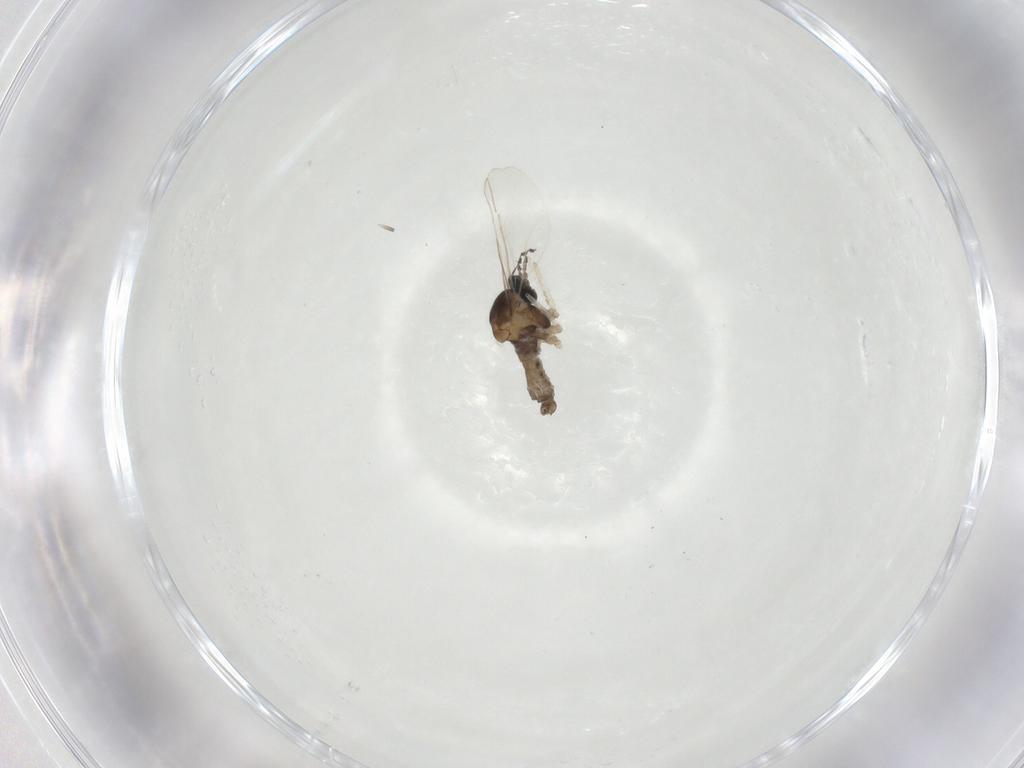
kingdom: Animalia
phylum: Arthropoda
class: Insecta
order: Diptera
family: Cecidomyiidae
